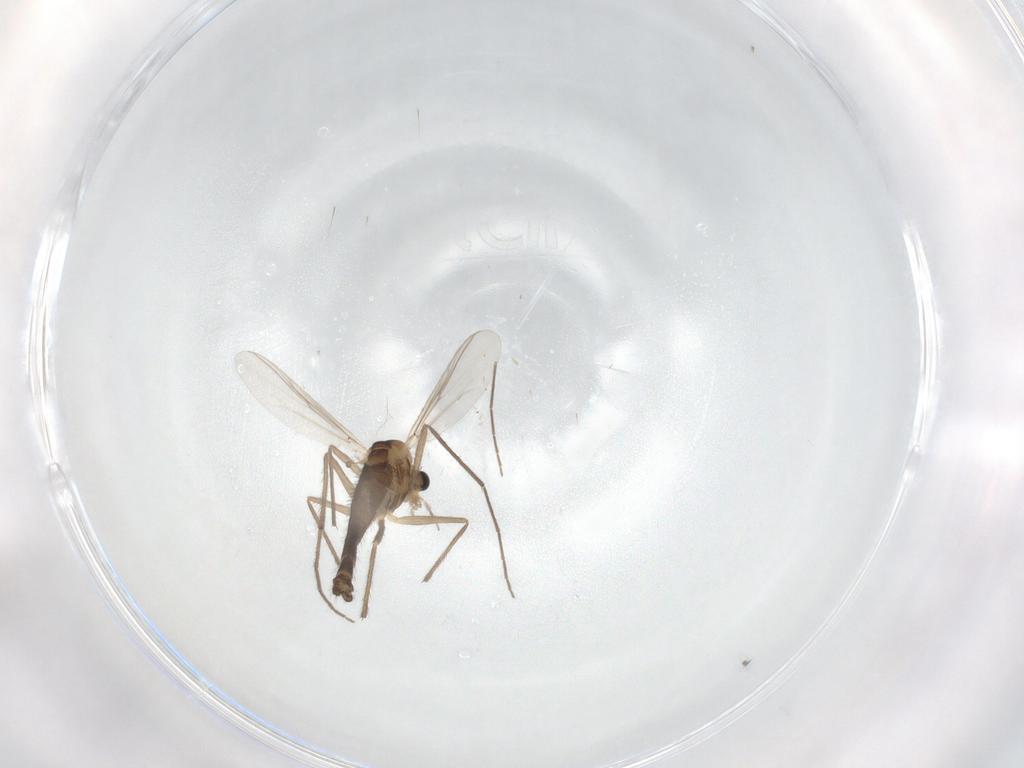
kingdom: Animalia
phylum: Arthropoda
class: Insecta
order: Diptera
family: Chironomidae
